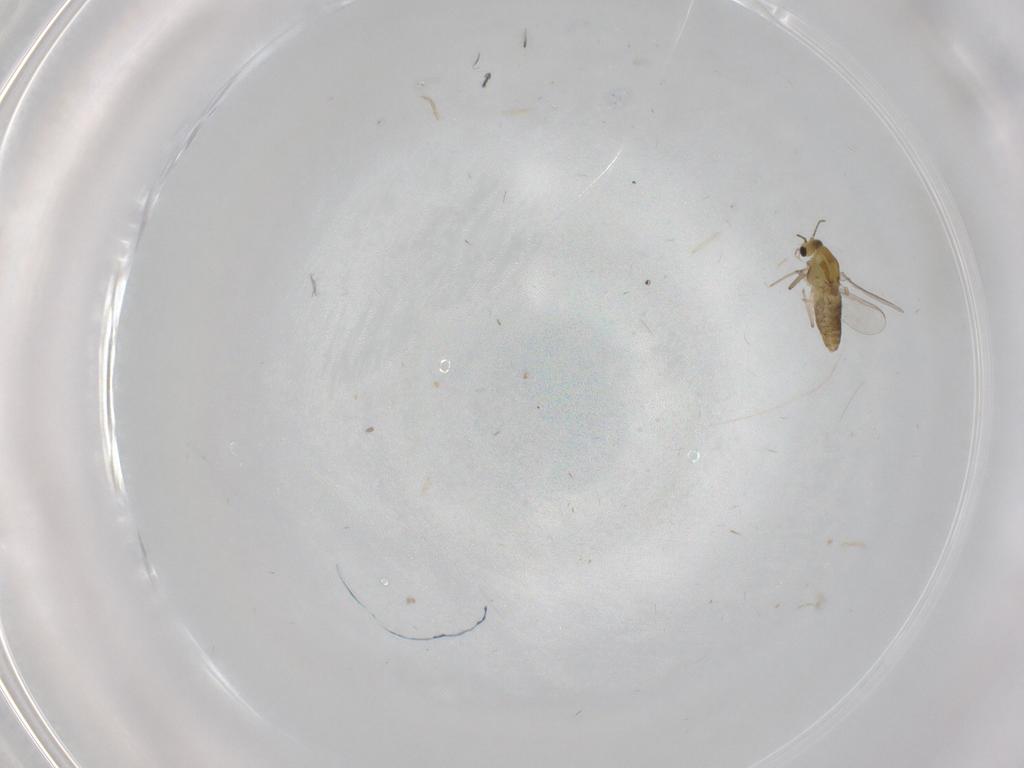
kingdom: Animalia
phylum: Arthropoda
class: Insecta
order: Diptera
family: Chironomidae
